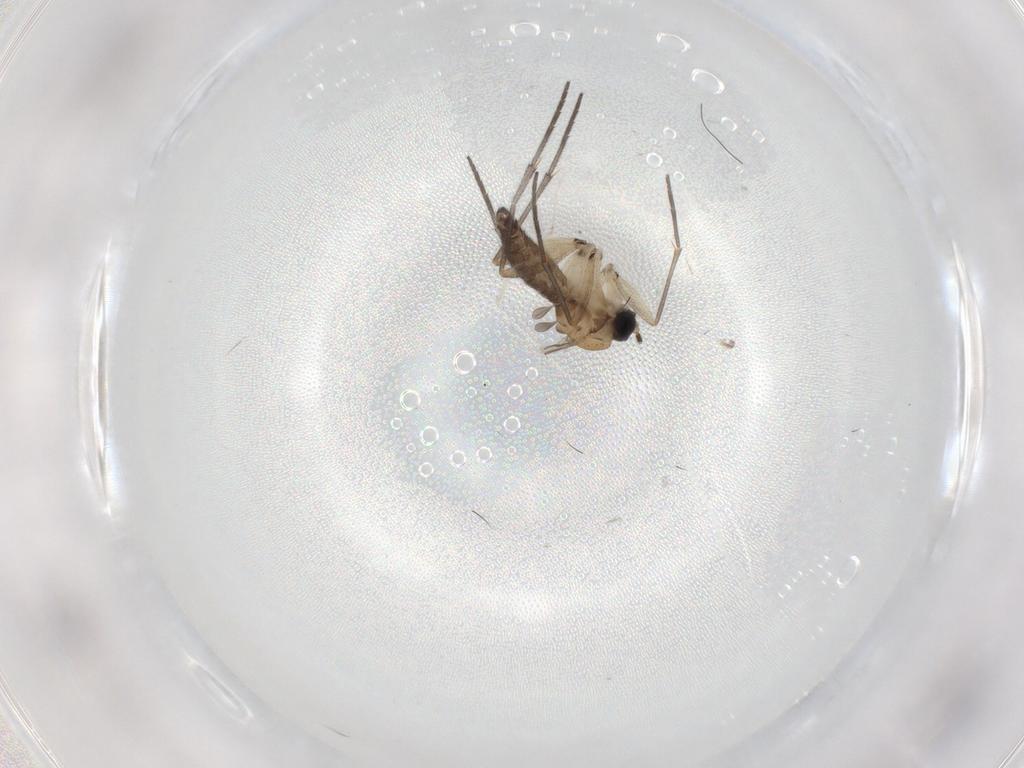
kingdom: Animalia
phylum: Arthropoda
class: Insecta
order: Diptera
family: Sciaridae
